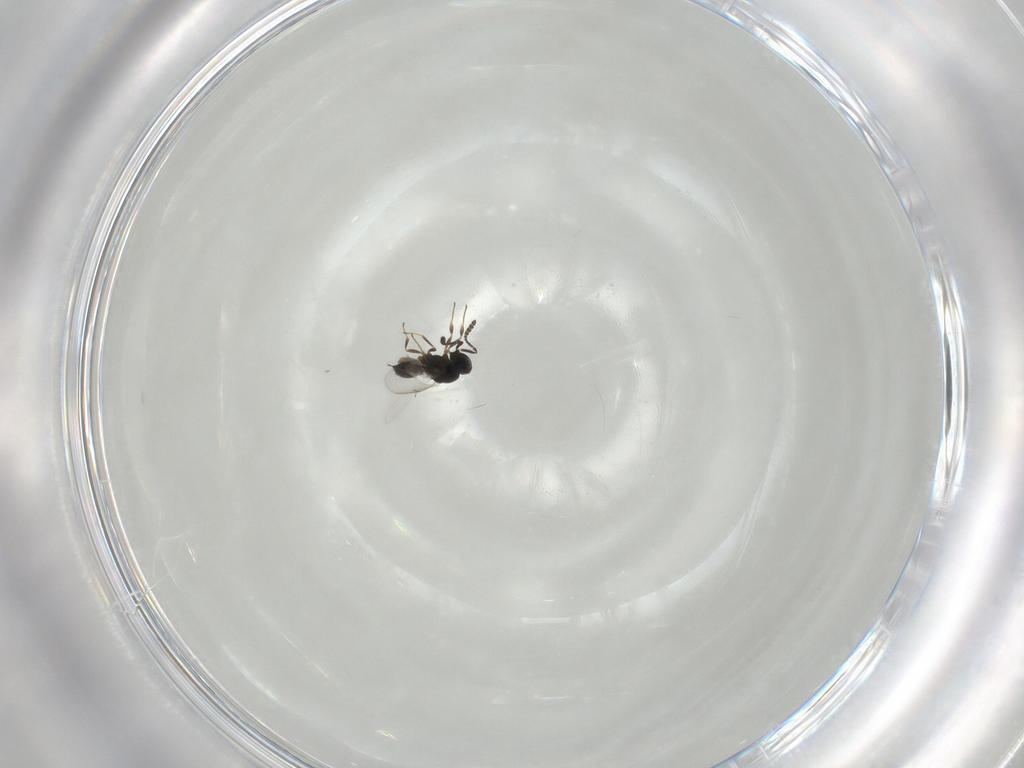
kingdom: Animalia
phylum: Arthropoda
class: Insecta
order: Hymenoptera
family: Scelionidae
